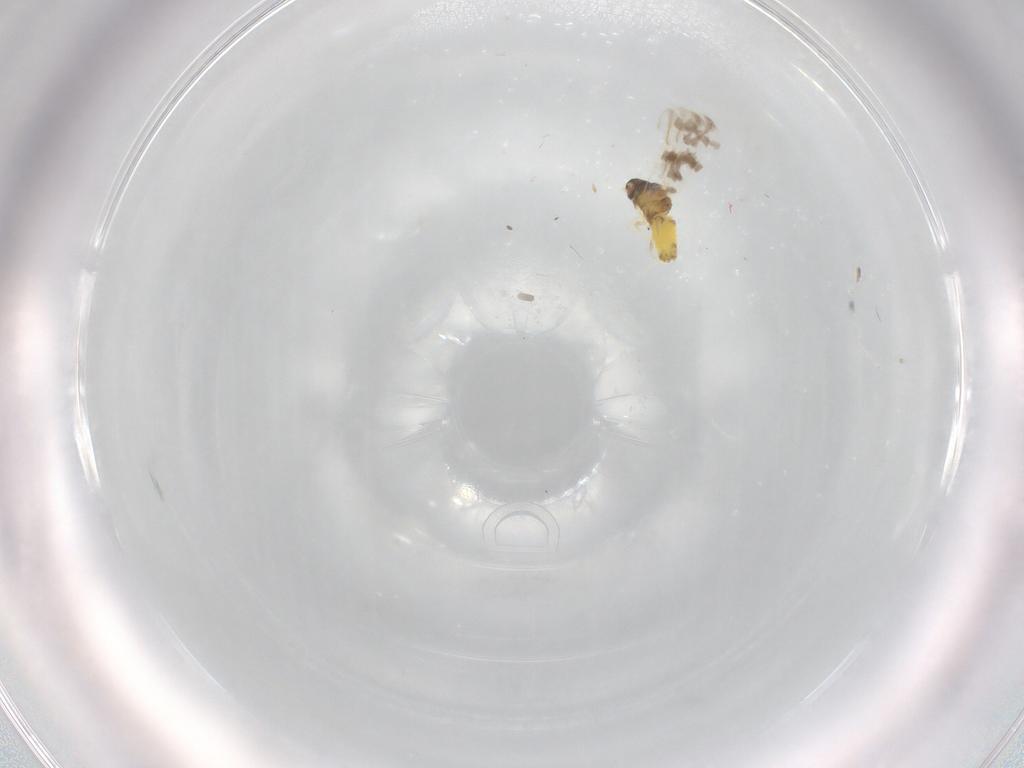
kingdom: Animalia
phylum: Arthropoda
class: Insecta
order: Hemiptera
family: Aleyrodidae
